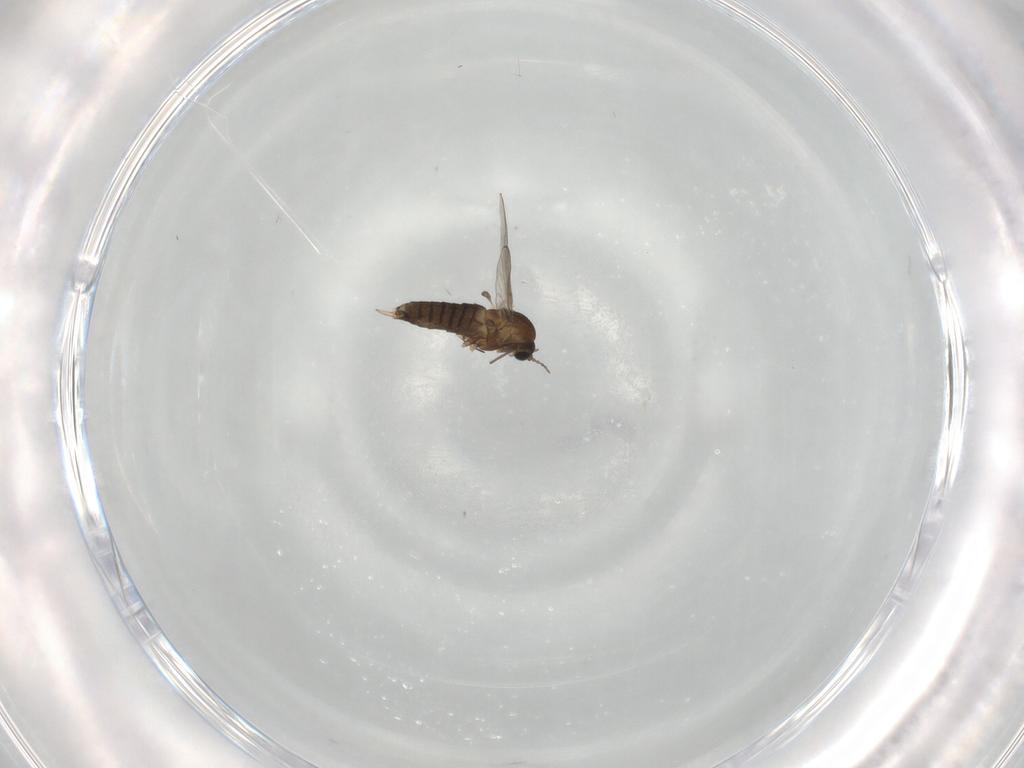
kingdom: Animalia
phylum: Arthropoda
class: Insecta
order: Diptera
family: Chironomidae
